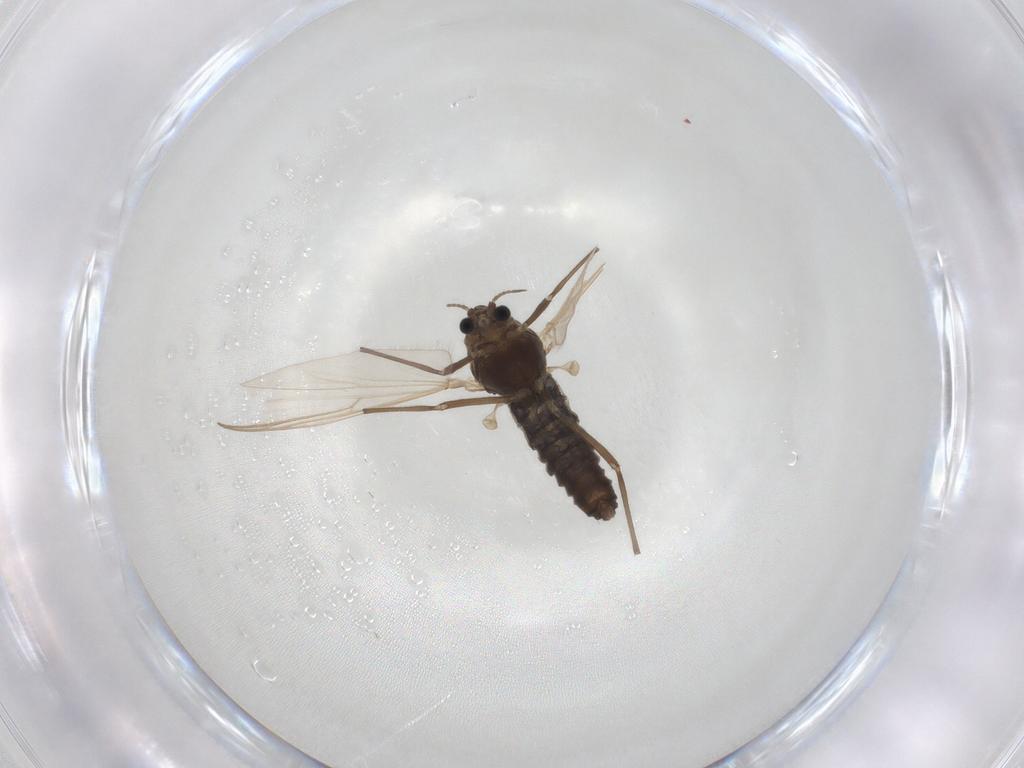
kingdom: Animalia
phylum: Arthropoda
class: Insecta
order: Diptera
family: Chironomidae
